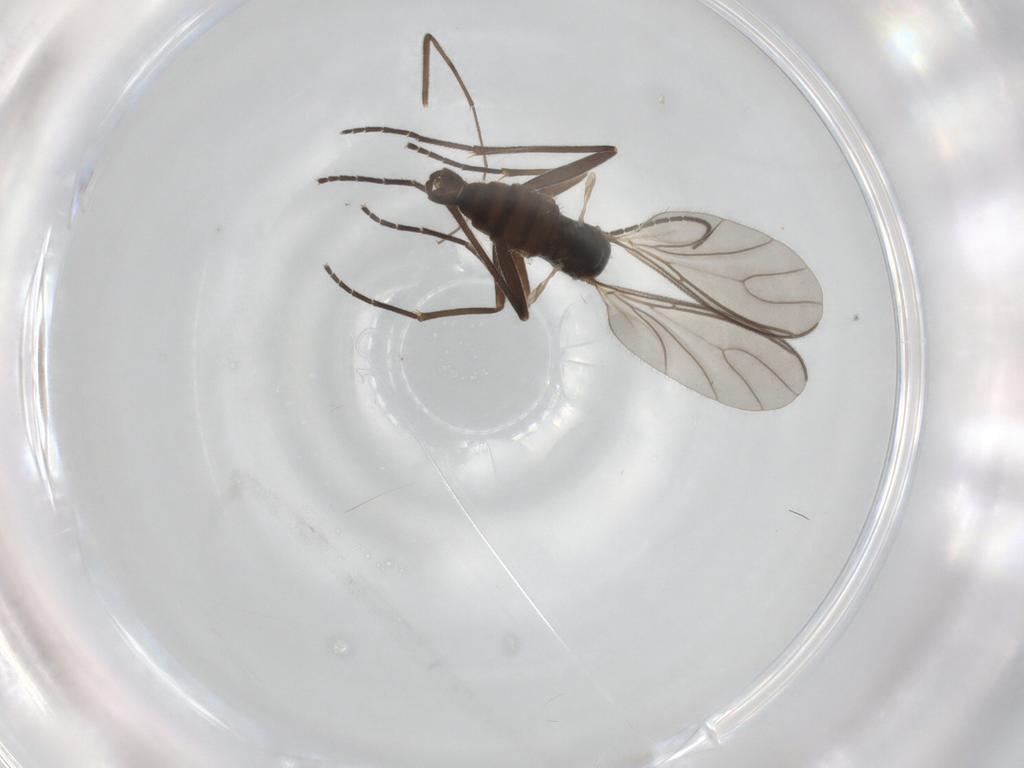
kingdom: Animalia
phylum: Arthropoda
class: Insecta
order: Diptera
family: Sciaridae
